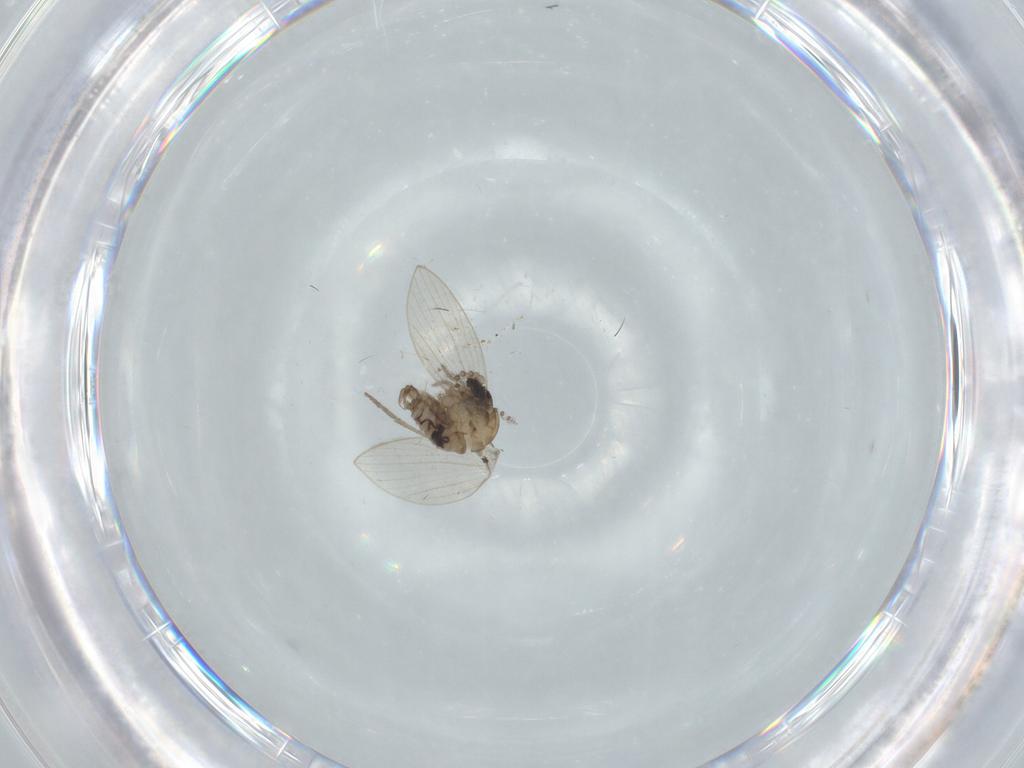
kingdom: Animalia
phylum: Arthropoda
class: Insecta
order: Diptera
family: Psychodidae
